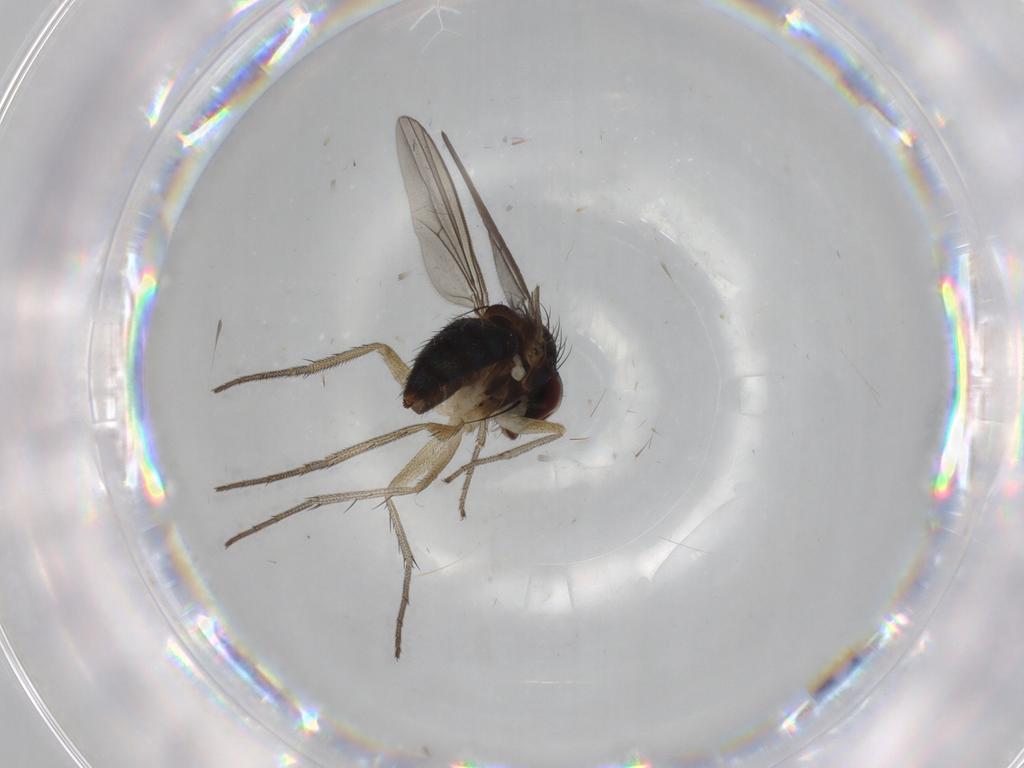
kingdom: Animalia
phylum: Arthropoda
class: Insecta
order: Diptera
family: Dolichopodidae
